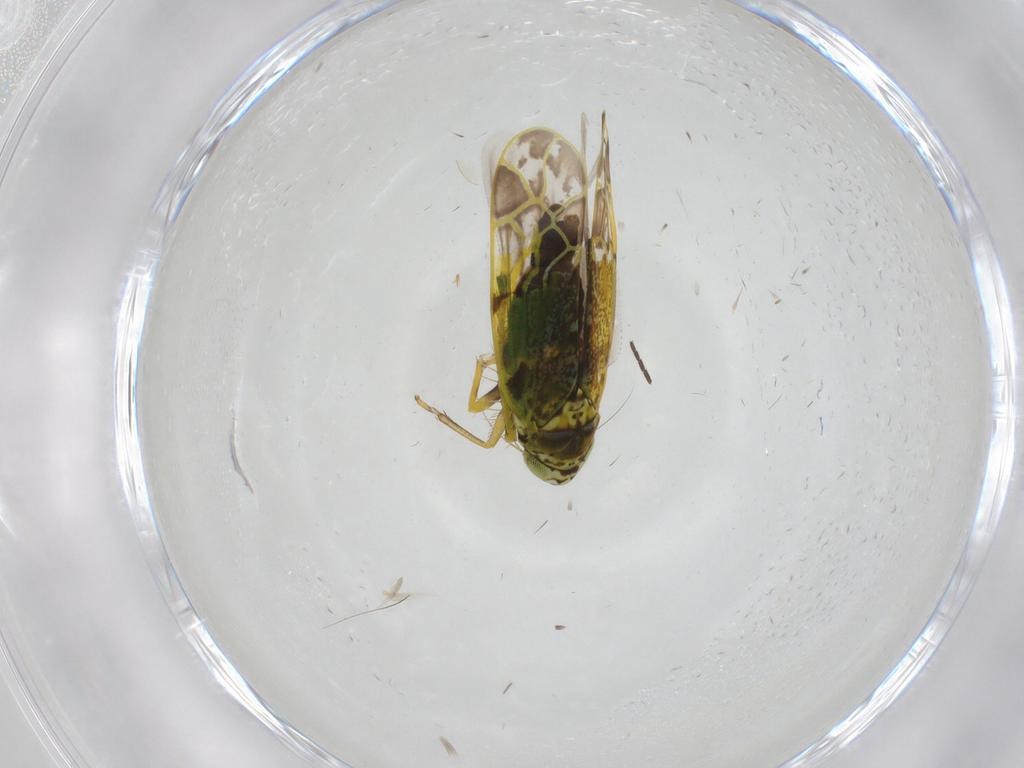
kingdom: Animalia
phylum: Arthropoda
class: Insecta
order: Hemiptera
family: Cicadellidae
